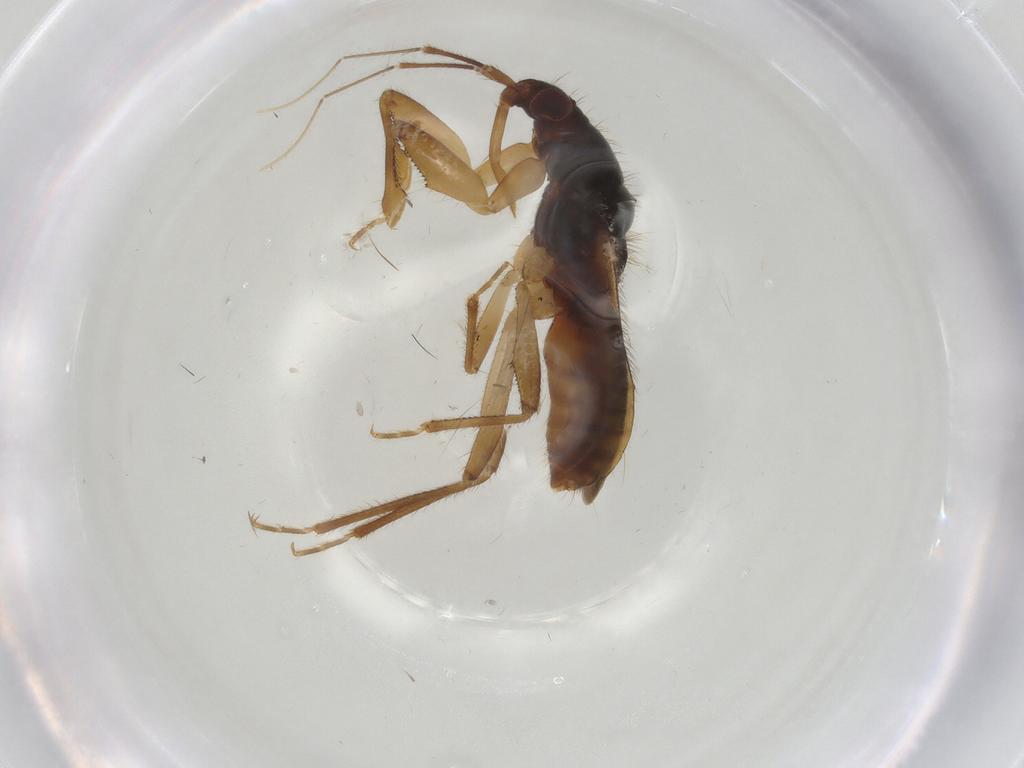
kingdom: Animalia
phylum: Arthropoda
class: Insecta
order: Hemiptera
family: Nabidae
